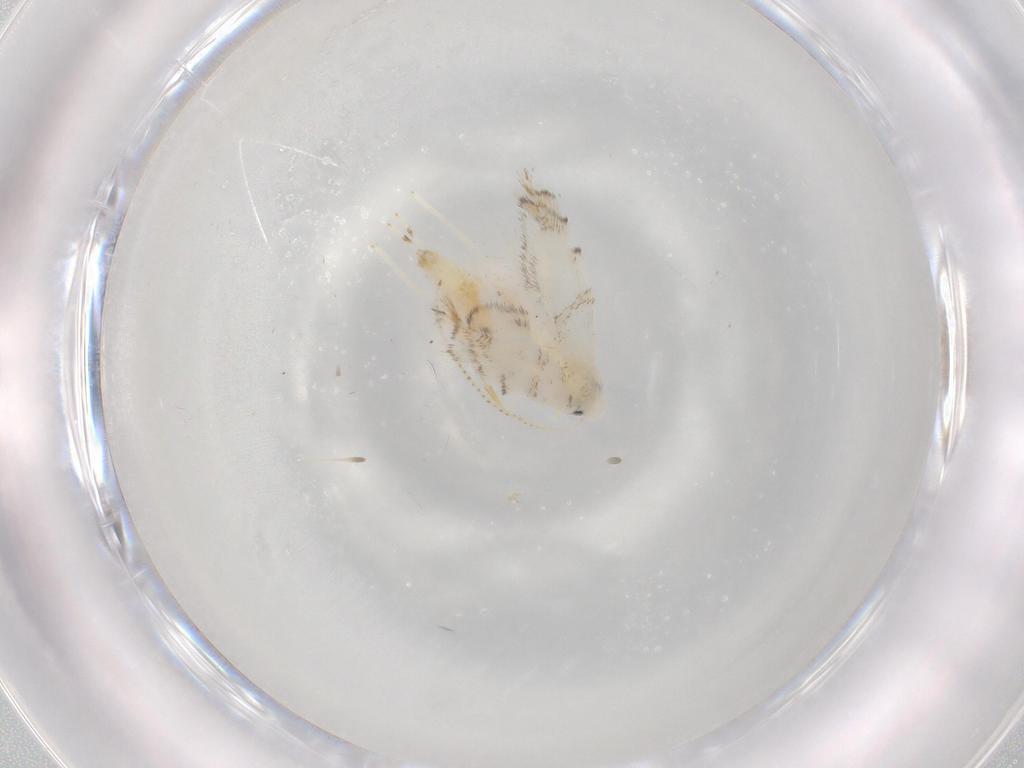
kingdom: Animalia
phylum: Arthropoda
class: Insecta
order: Lepidoptera
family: Gracillariidae
